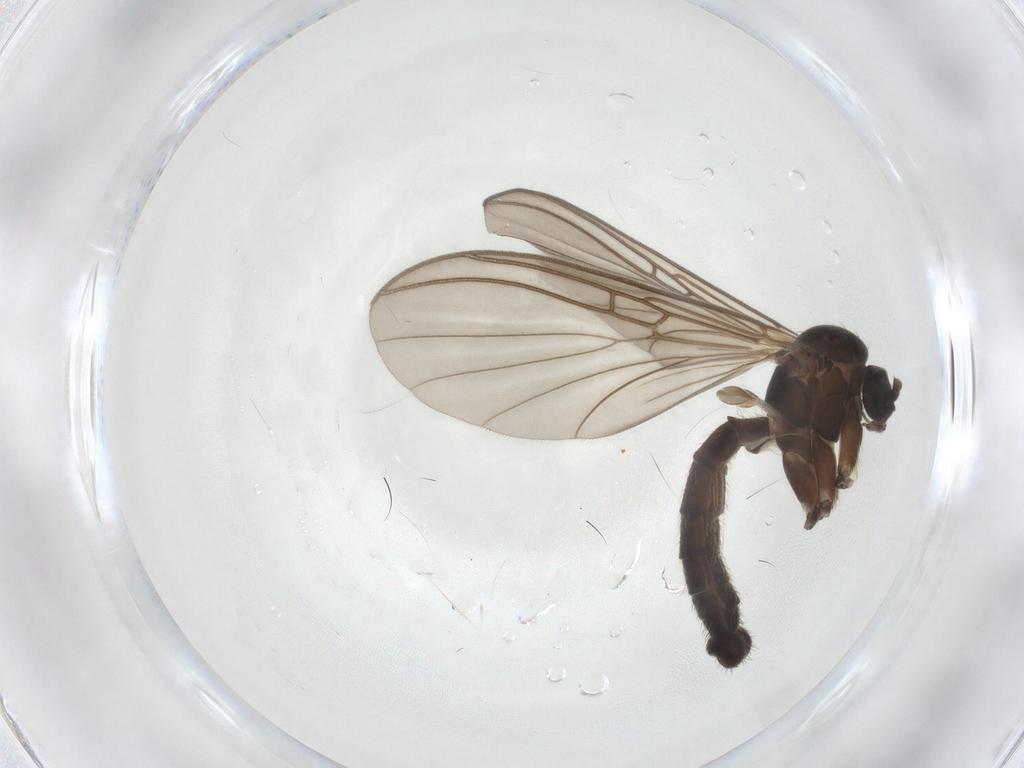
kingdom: Animalia
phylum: Arthropoda
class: Insecta
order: Diptera
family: Mycetophilidae
